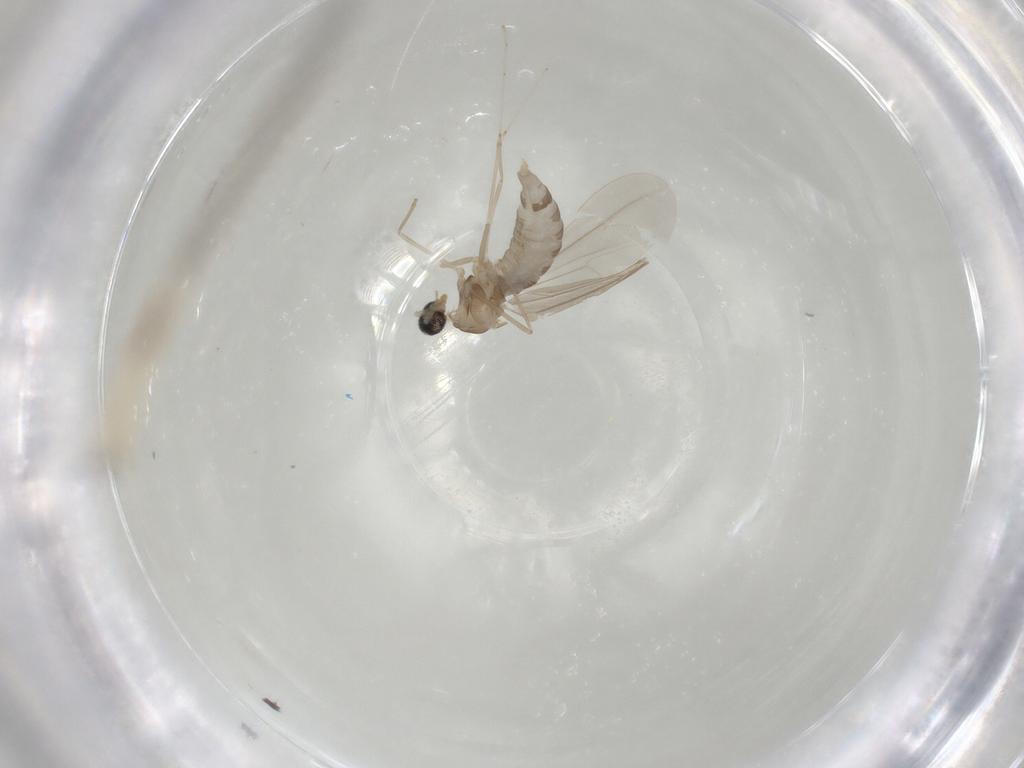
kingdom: Animalia
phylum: Arthropoda
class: Insecta
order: Diptera
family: Cecidomyiidae
